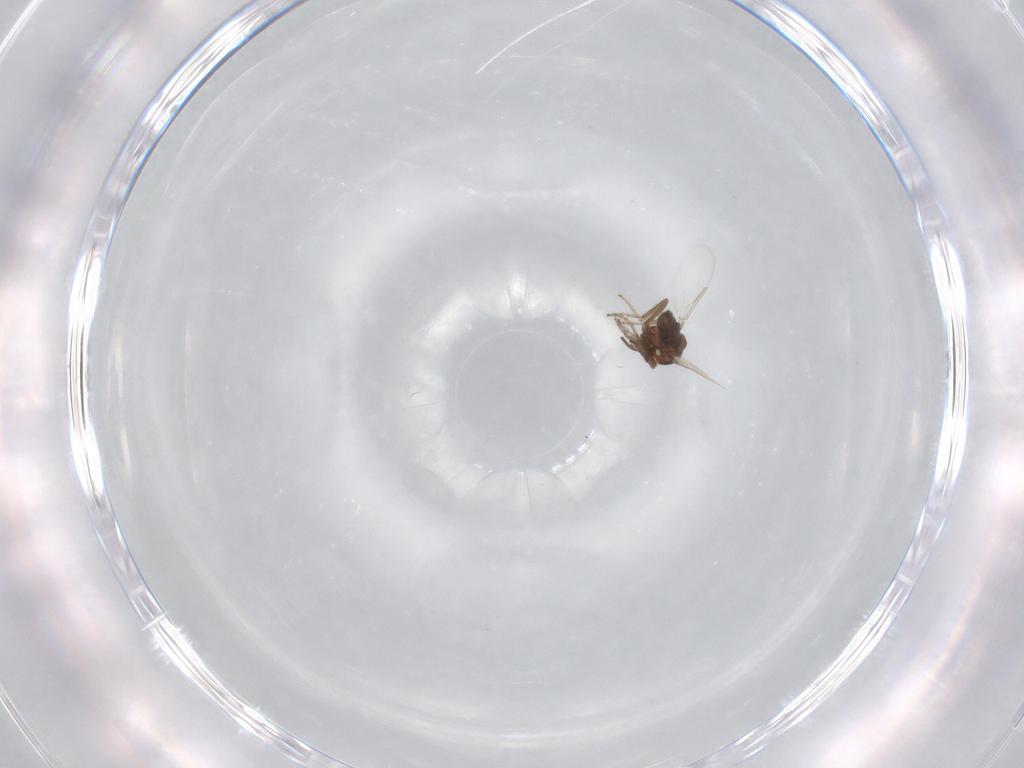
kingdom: Animalia
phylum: Arthropoda
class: Insecta
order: Diptera
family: Ceratopogonidae
